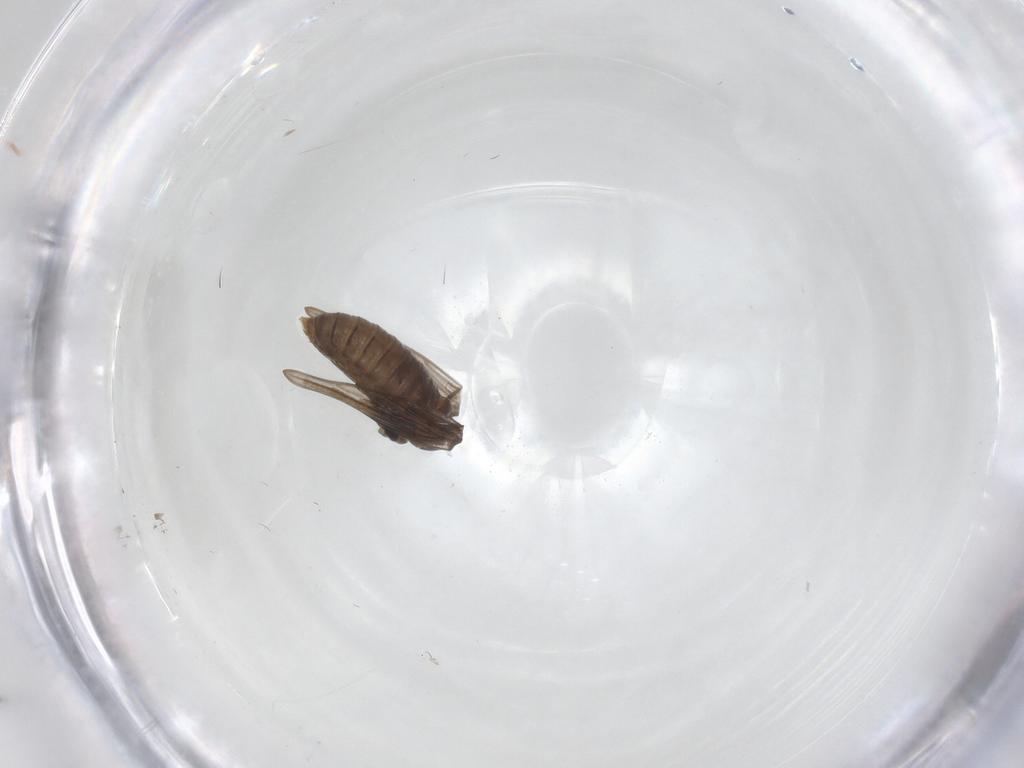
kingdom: Animalia
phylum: Arthropoda
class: Insecta
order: Diptera
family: Psychodidae
